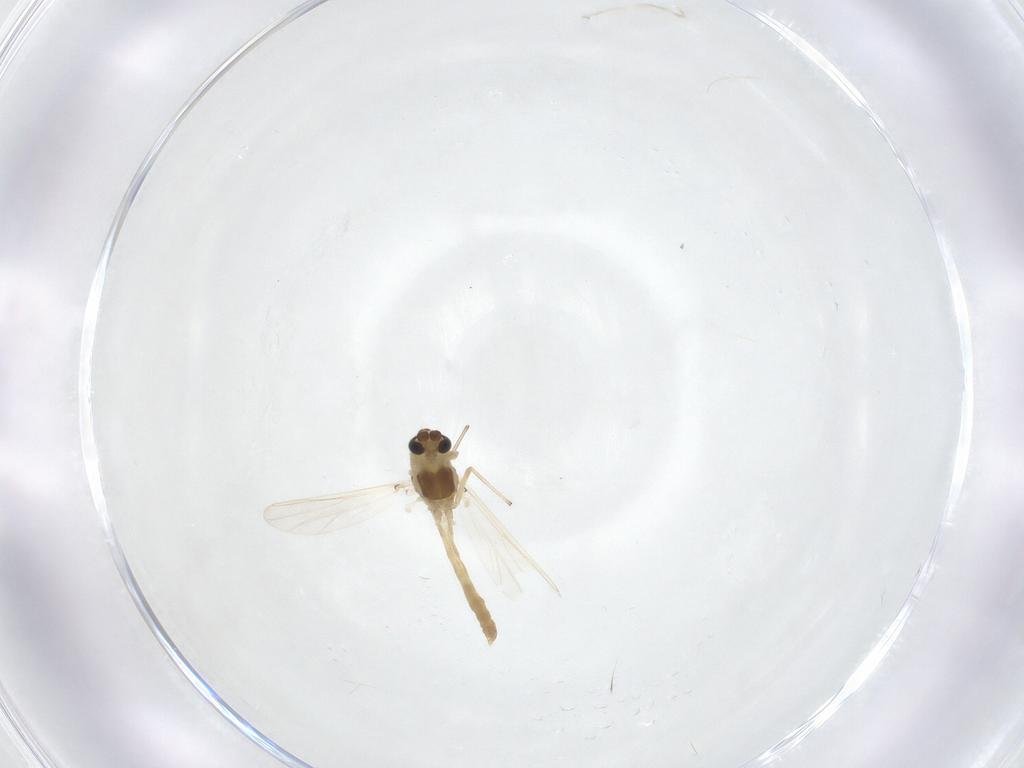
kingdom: Animalia
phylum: Arthropoda
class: Insecta
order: Diptera
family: Chironomidae
